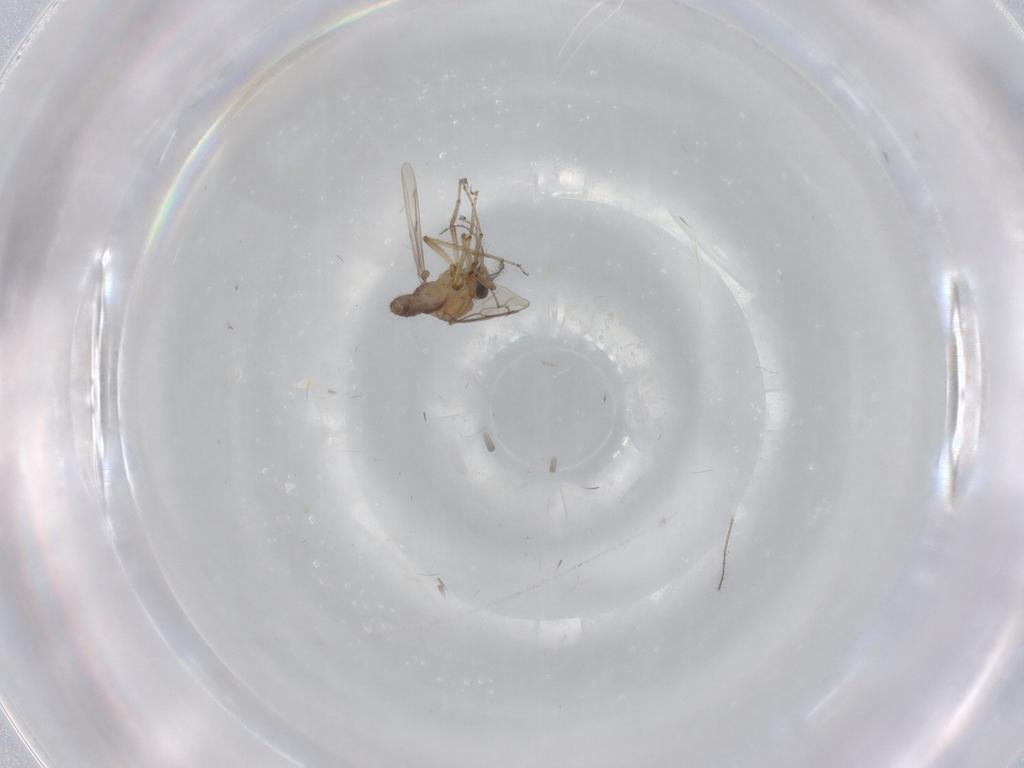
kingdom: Animalia
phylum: Arthropoda
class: Insecta
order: Diptera
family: Ceratopogonidae
